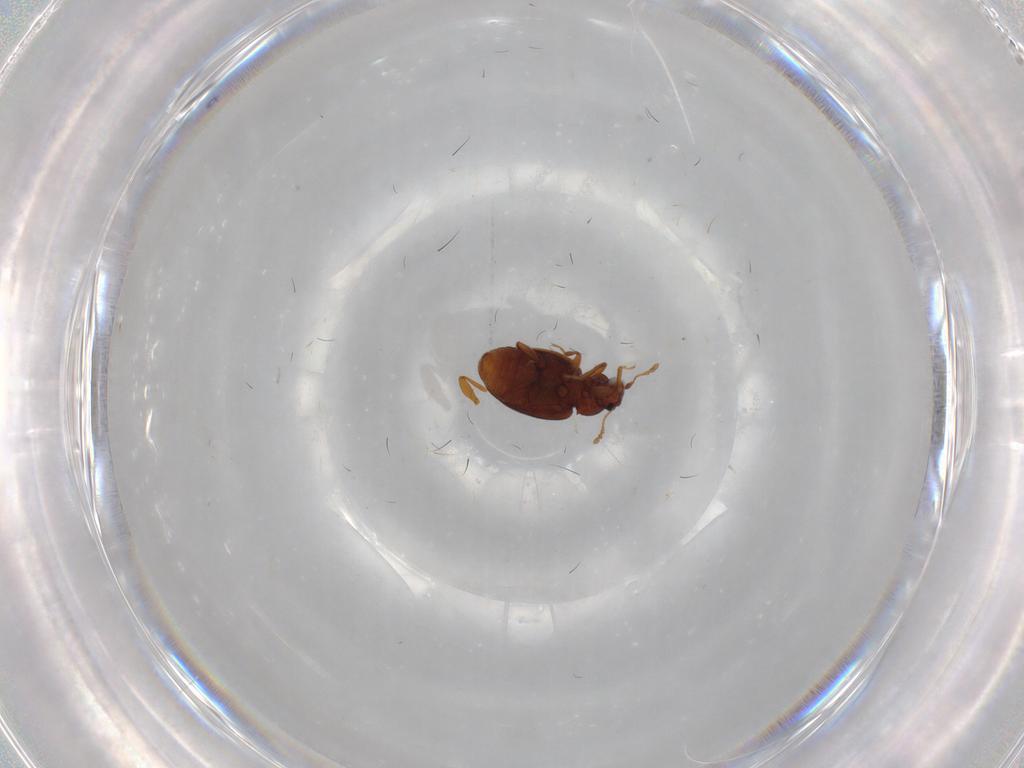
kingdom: Animalia
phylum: Arthropoda
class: Insecta
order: Coleoptera
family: Latridiidae
